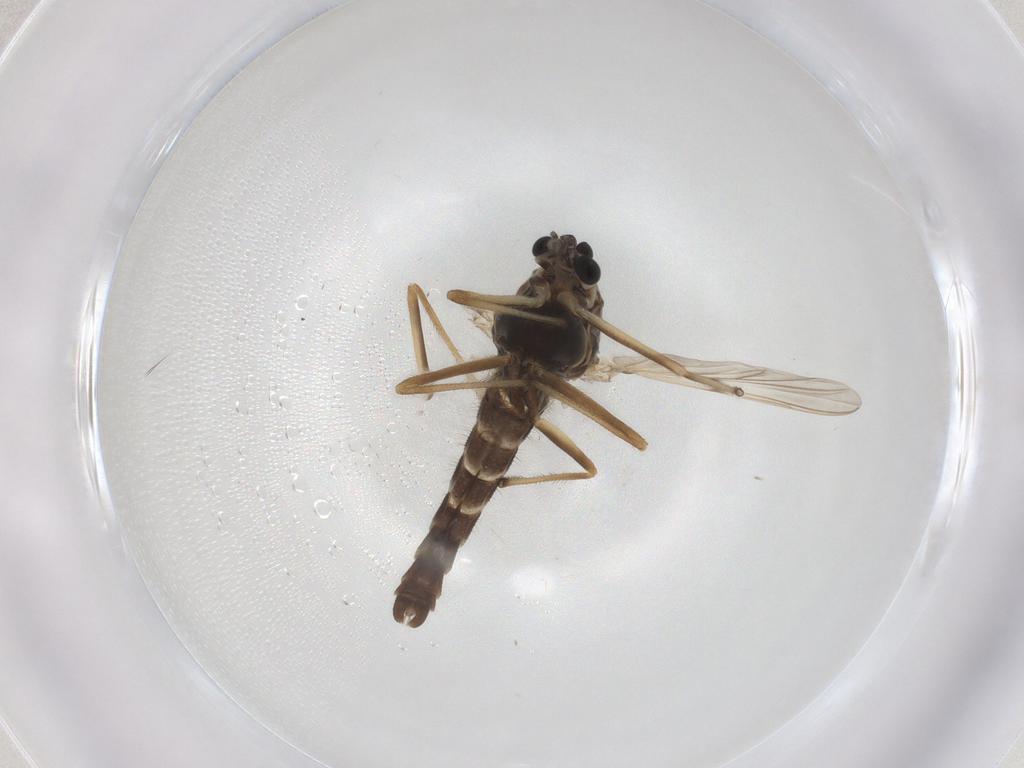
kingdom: Animalia
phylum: Arthropoda
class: Insecta
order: Diptera
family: Chironomidae
